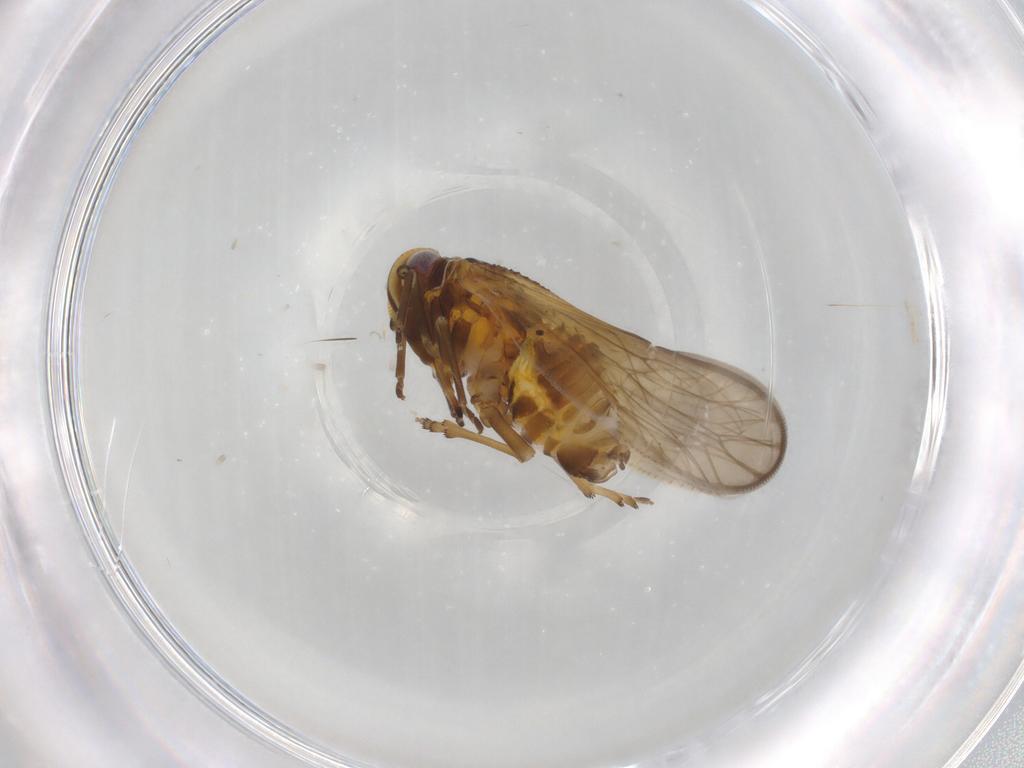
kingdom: Animalia
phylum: Arthropoda
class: Insecta
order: Hemiptera
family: Meenoplidae
